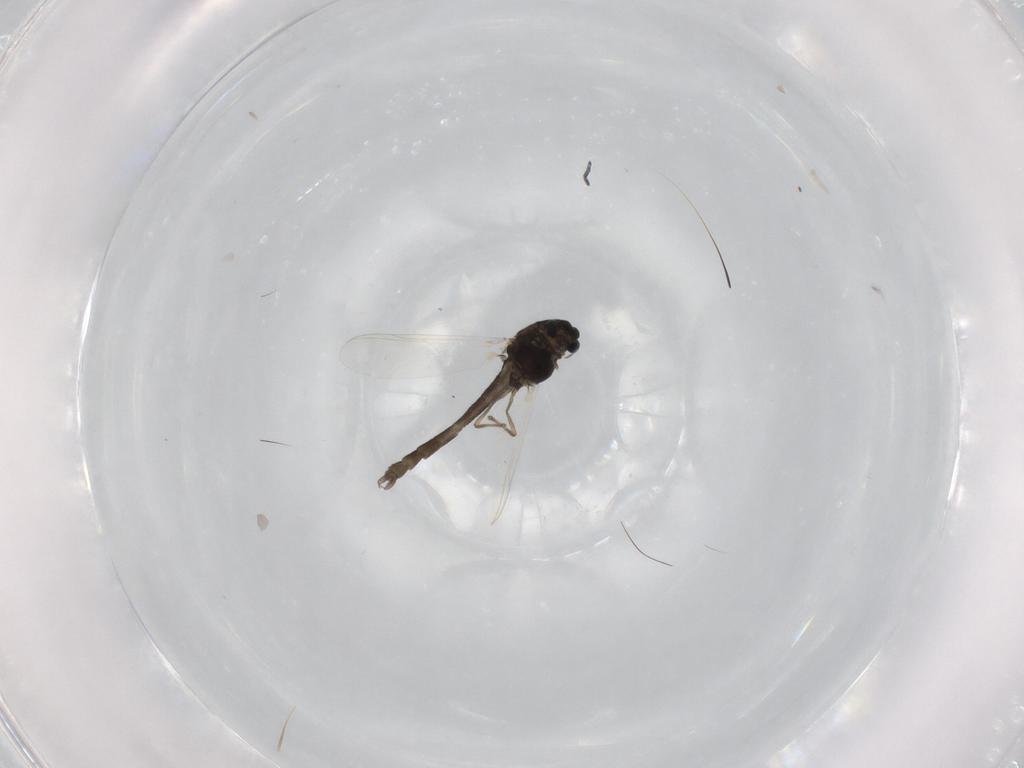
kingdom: Animalia
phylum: Arthropoda
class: Insecta
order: Diptera
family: Chironomidae
